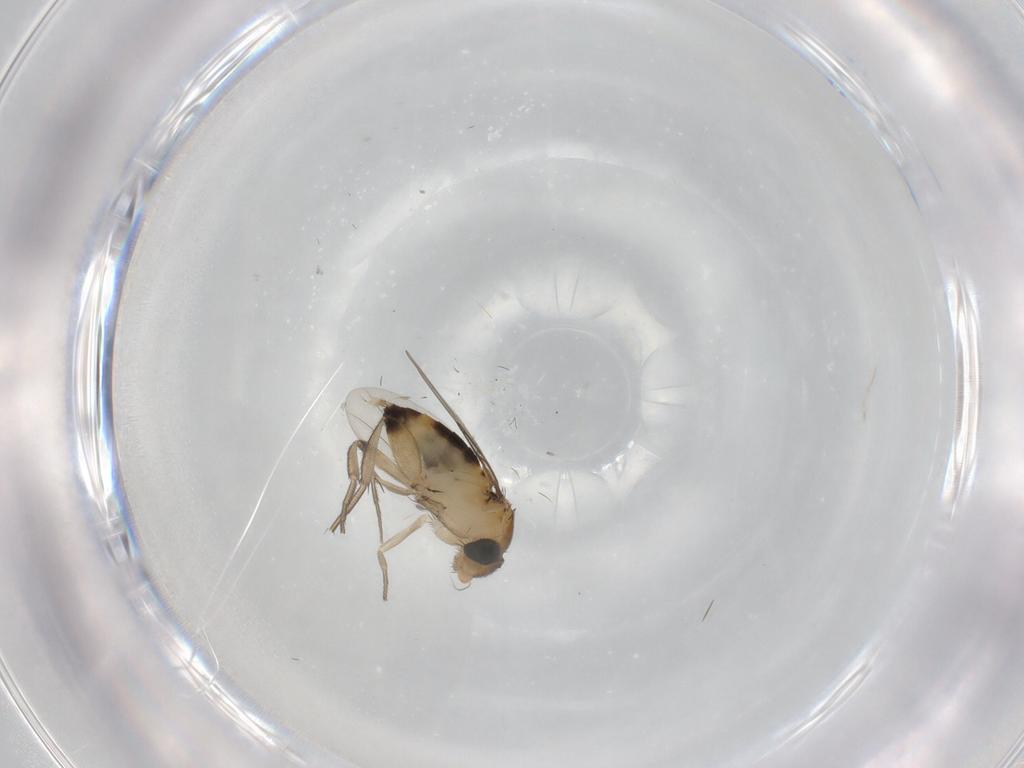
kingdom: Animalia
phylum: Arthropoda
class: Insecta
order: Diptera
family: Phoridae
